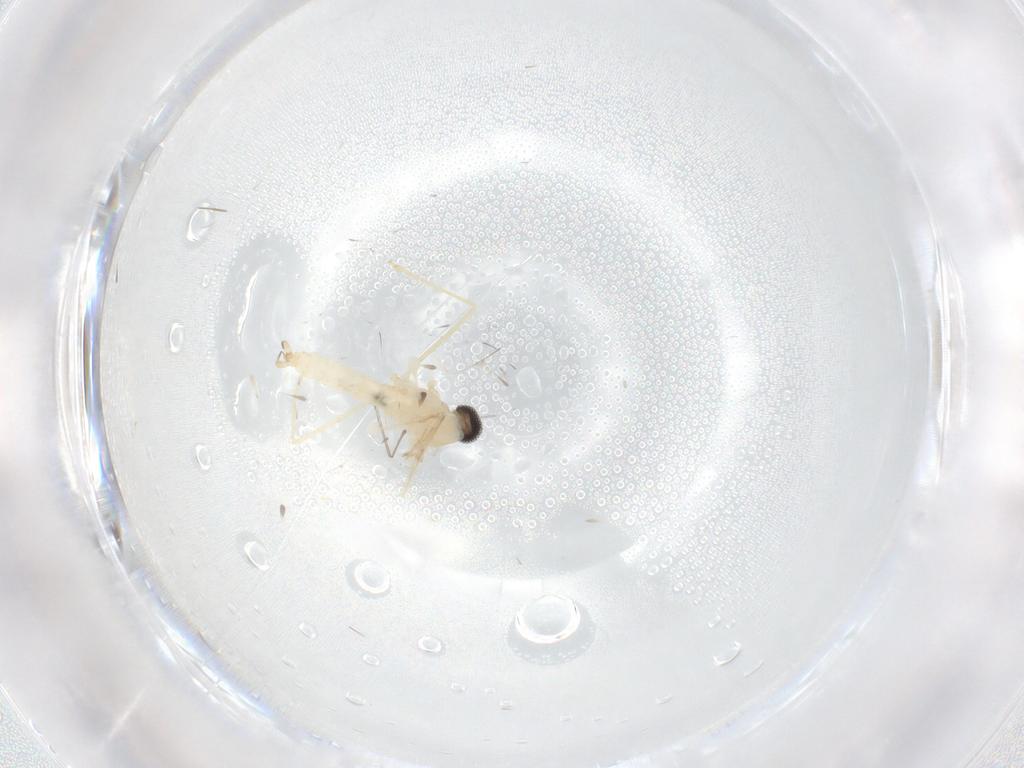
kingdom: Animalia
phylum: Arthropoda
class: Insecta
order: Diptera
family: Cecidomyiidae
